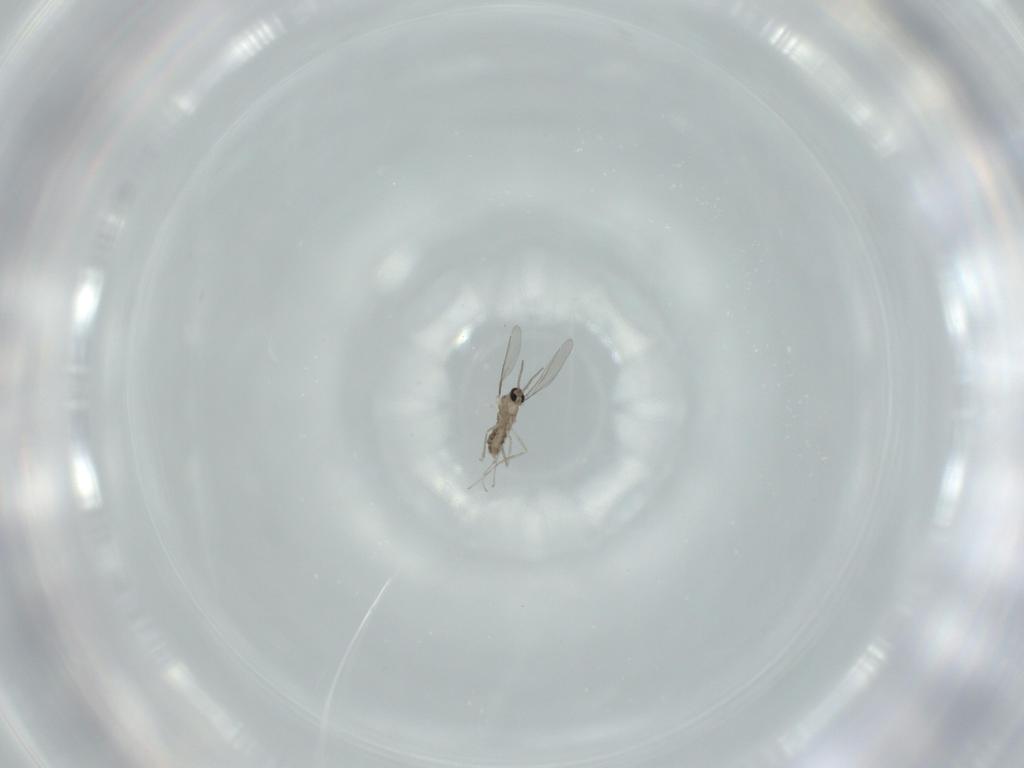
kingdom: Animalia
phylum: Arthropoda
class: Insecta
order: Diptera
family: Cecidomyiidae
